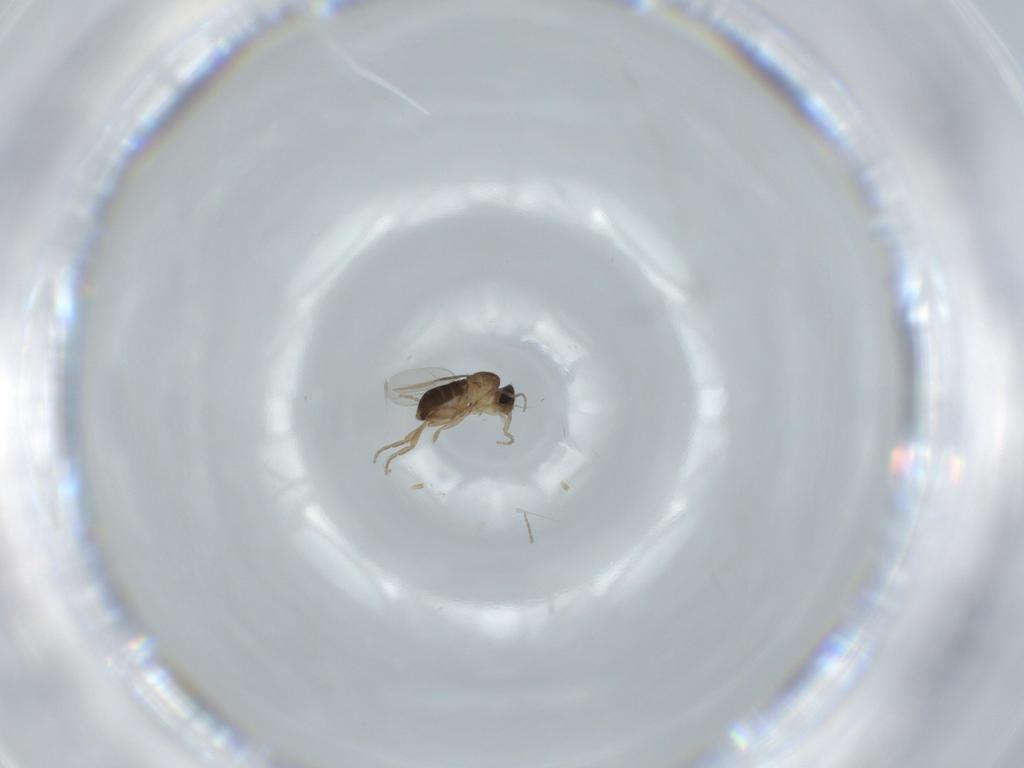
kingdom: Animalia
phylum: Arthropoda
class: Insecta
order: Diptera
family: Phoridae
